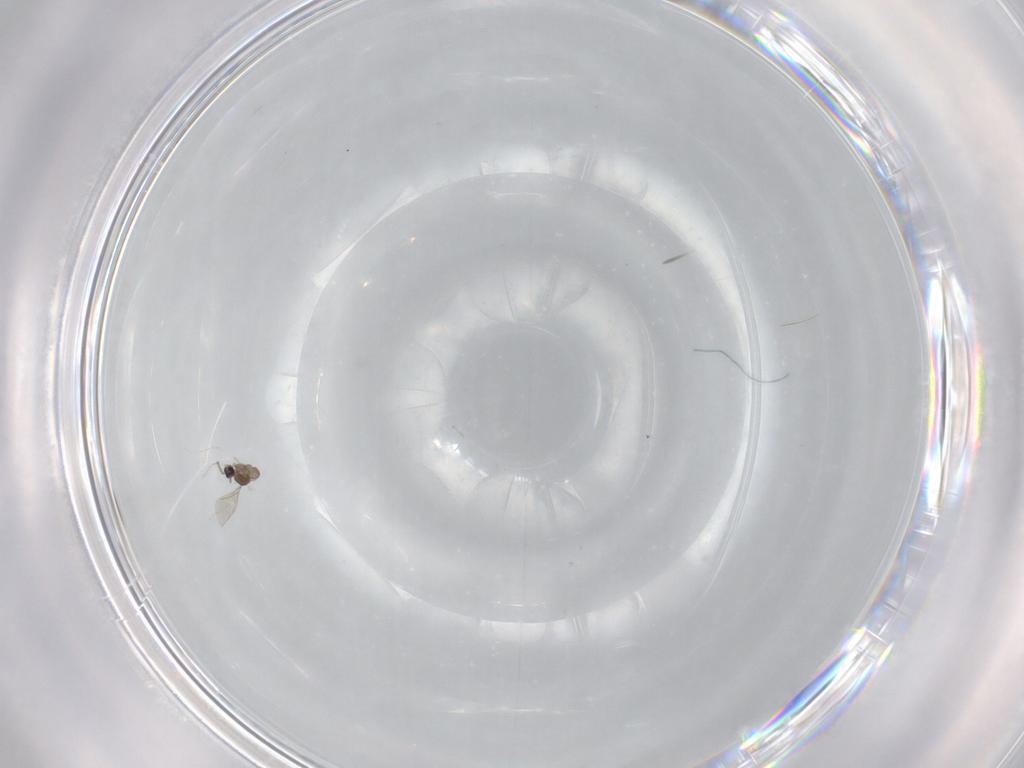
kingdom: Animalia
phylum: Arthropoda
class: Insecta
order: Diptera
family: Cecidomyiidae
